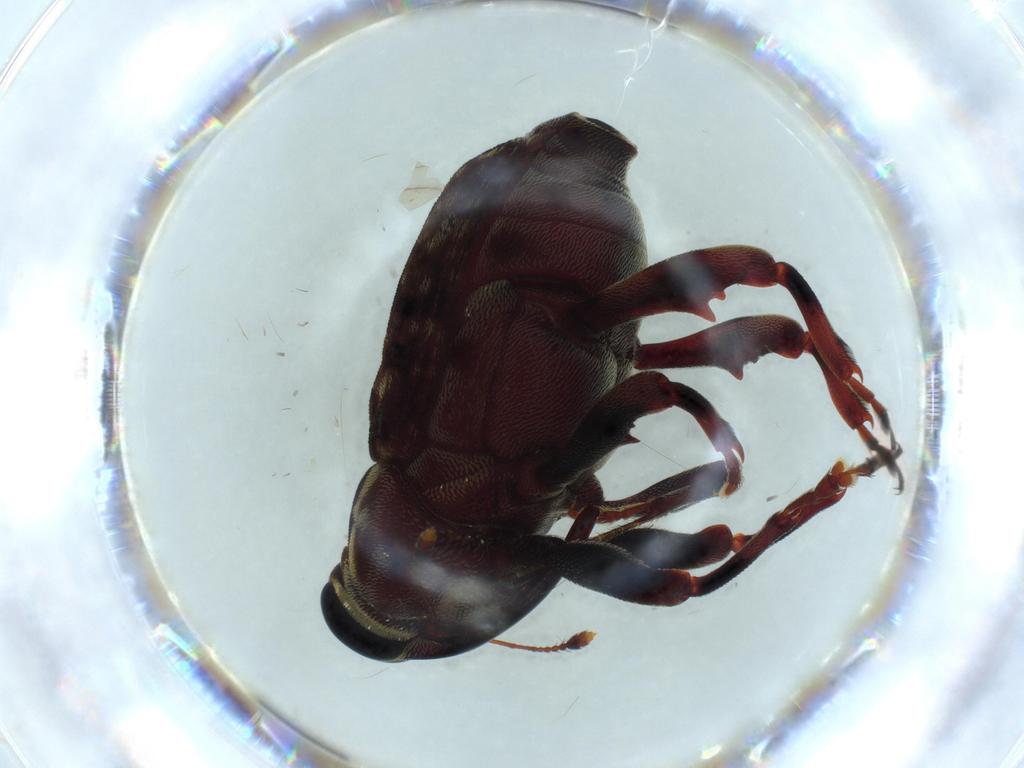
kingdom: Animalia
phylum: Arthropoda
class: Insecta
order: Coleoptera
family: Curculionidae
